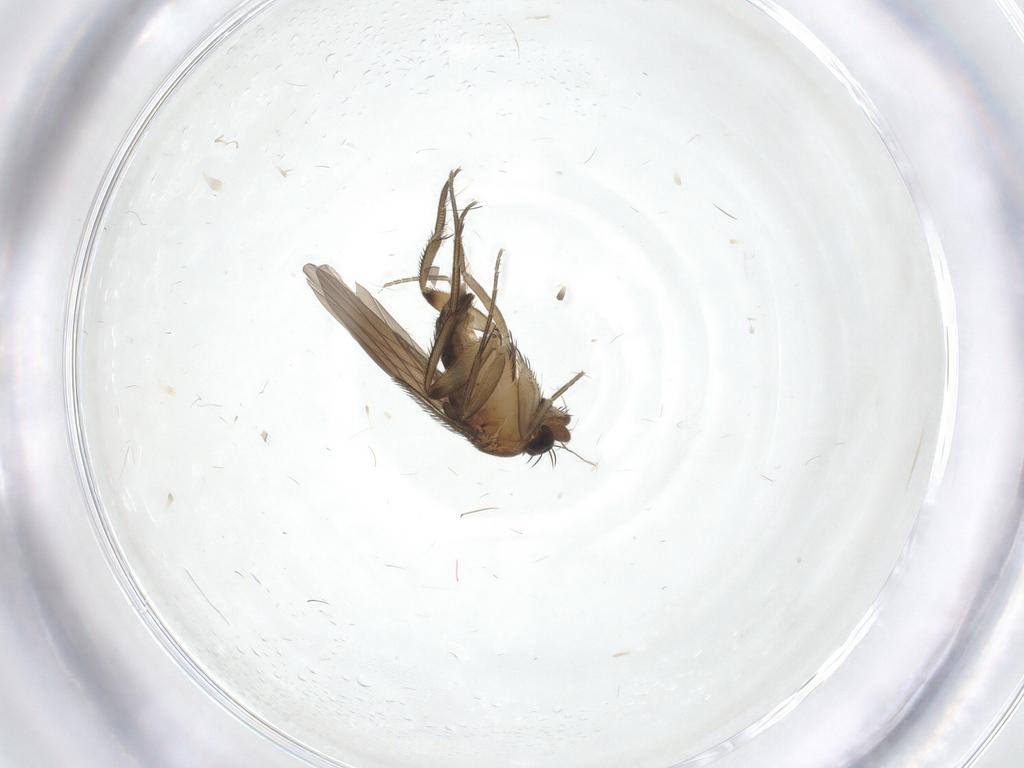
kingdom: Animalia
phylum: Arthropoda
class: Insecta
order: Diptera
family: Phoridae
